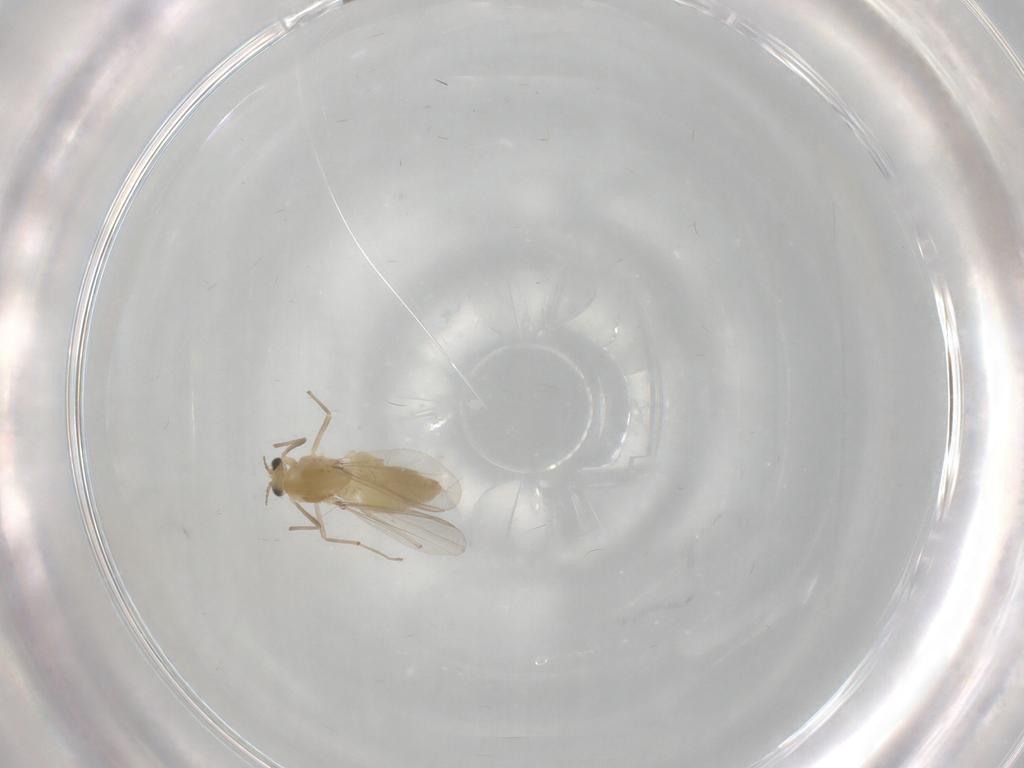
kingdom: Animalia
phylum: Arthropoda
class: Insecta
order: Diptera
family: Chironomidae
